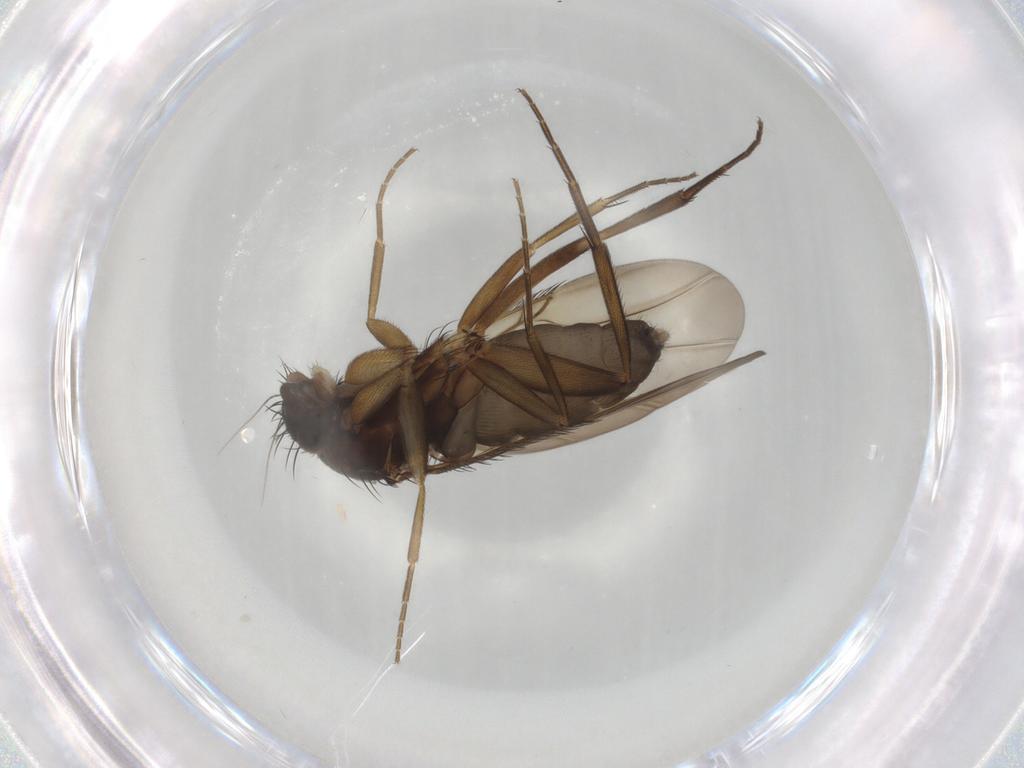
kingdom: Animalia
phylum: Arthropoda
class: Insecta
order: Diptera
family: Phoridae
